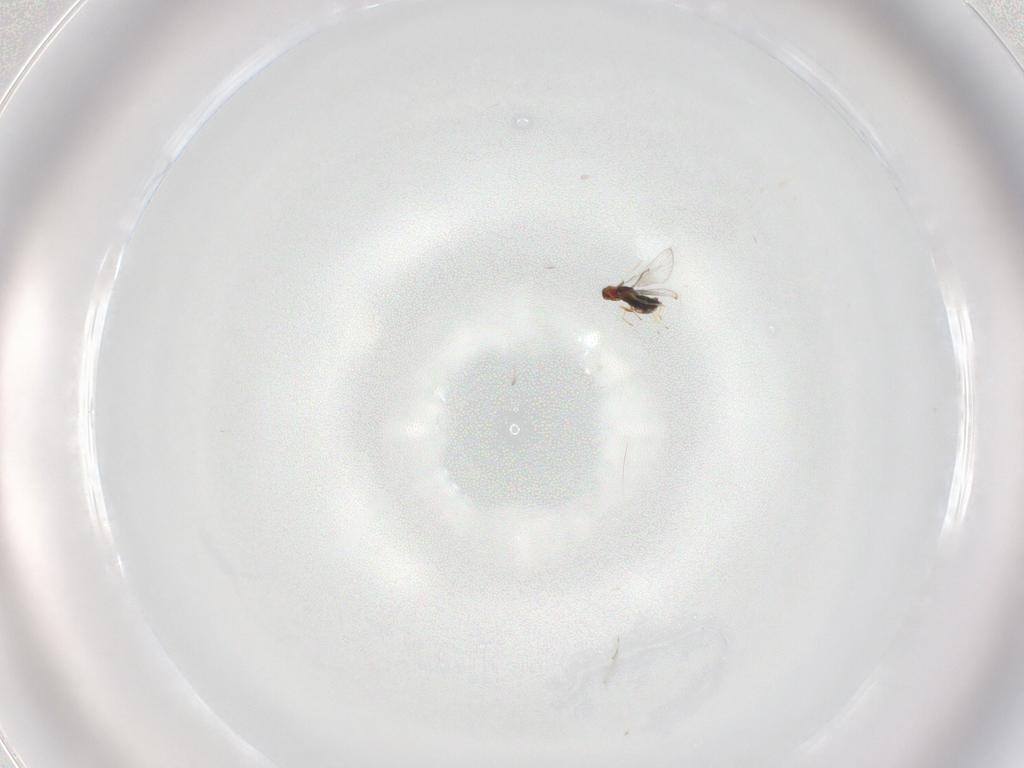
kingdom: Animalia
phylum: Arthropoda
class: Insecta
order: Hymenoptera
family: Trichogrammatidae
